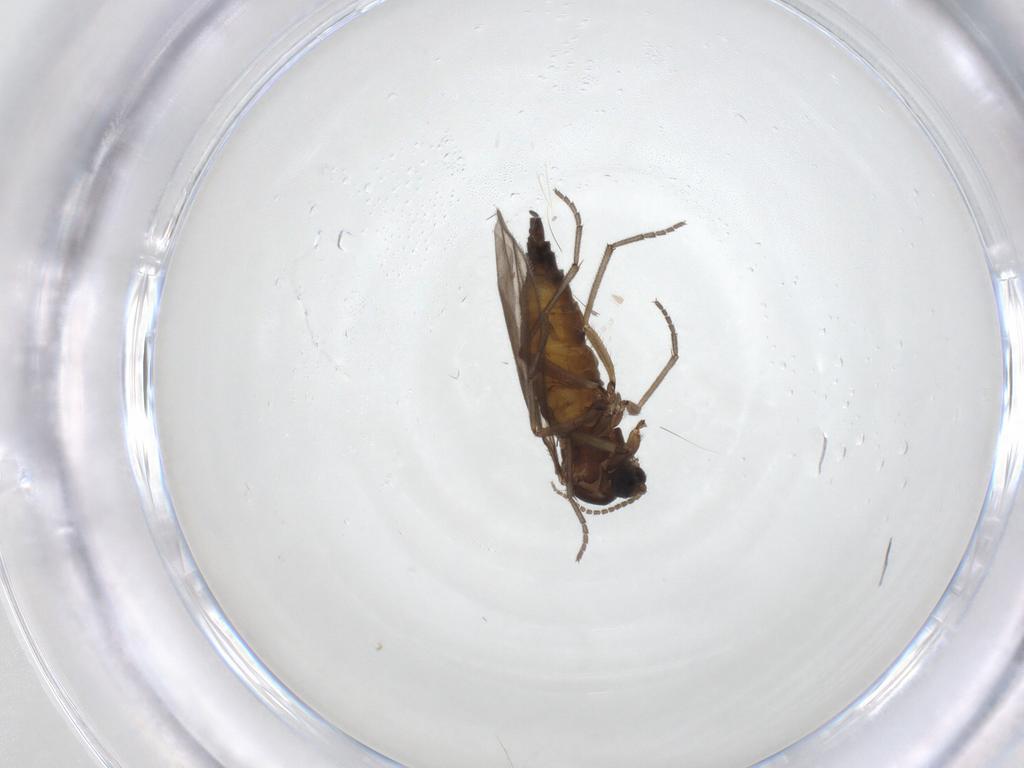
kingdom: Animalia
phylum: Arthropoda
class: Insecta
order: Diptera
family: Sciaridae
